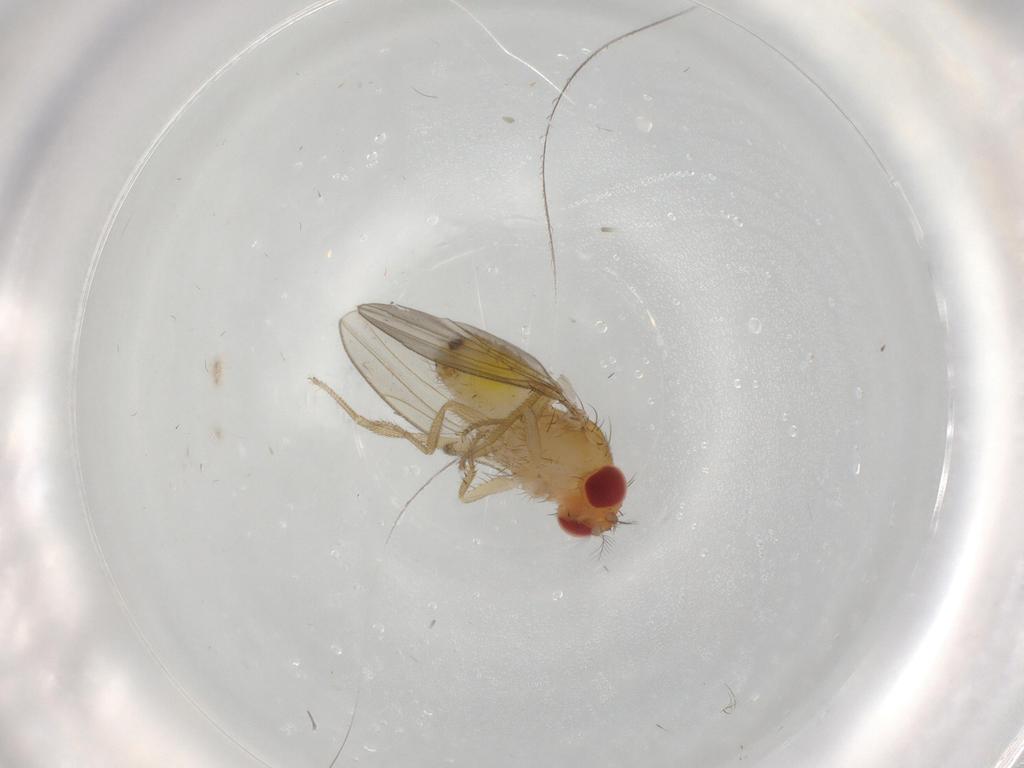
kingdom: Animalia
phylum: Arthropoda
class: Insecta
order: Diptera
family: Drosophilidae
